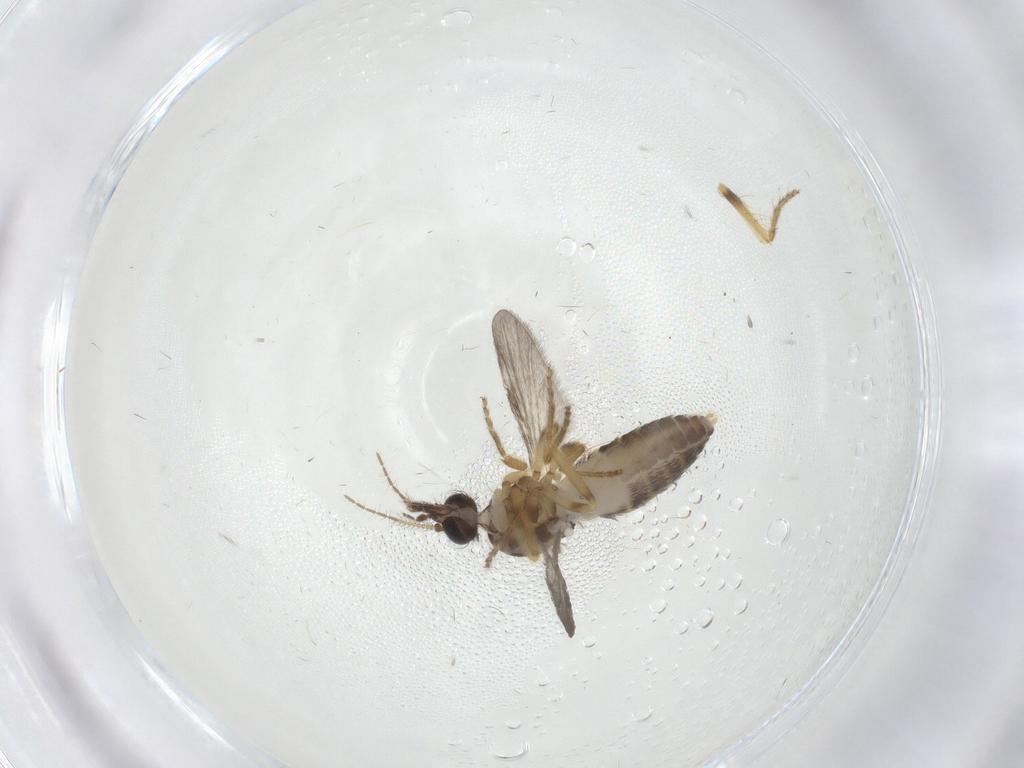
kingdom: Animalia
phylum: Arthropoda
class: Insecta
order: Diptera
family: Ceratopogonidae
